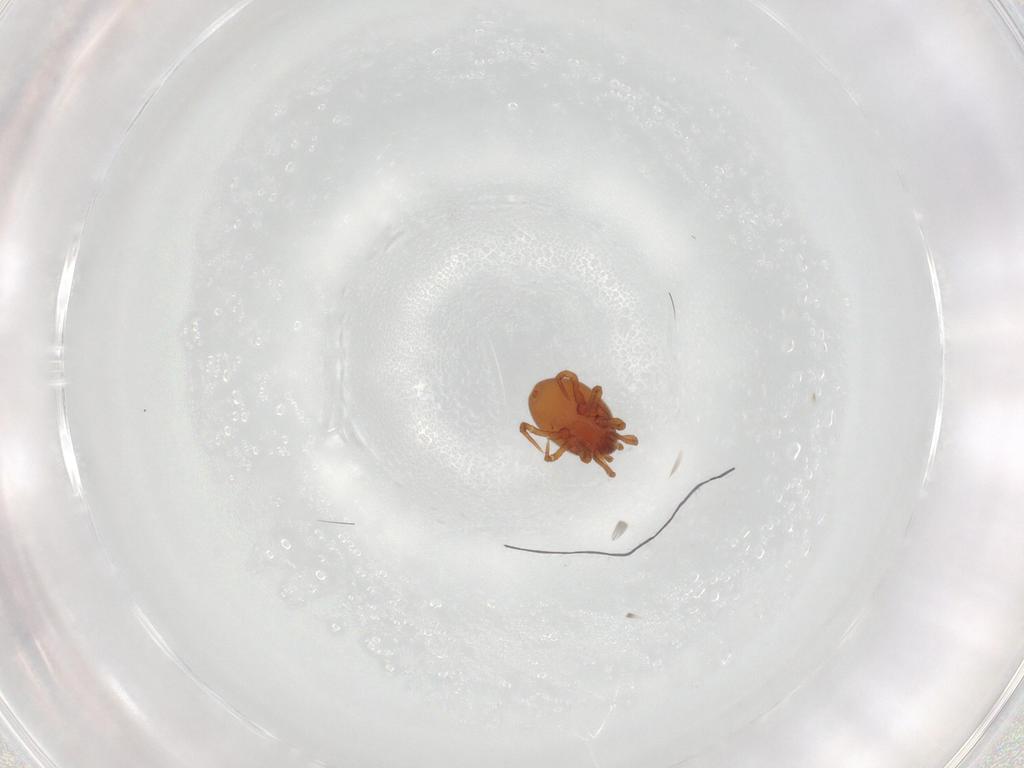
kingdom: Animalia
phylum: Arthropoda
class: Arachnida
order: Mesostigmata
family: Parasitidae
